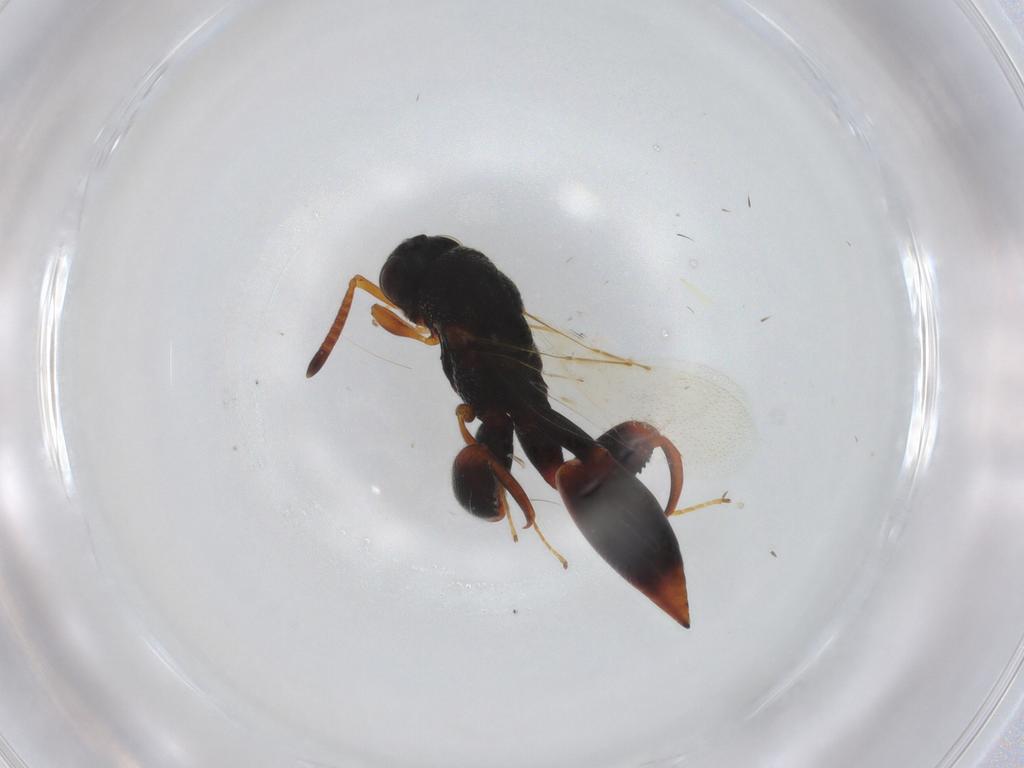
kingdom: Animalia
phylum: Arthropoda
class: Insecta
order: Hymenoptera
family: Chalcididae
